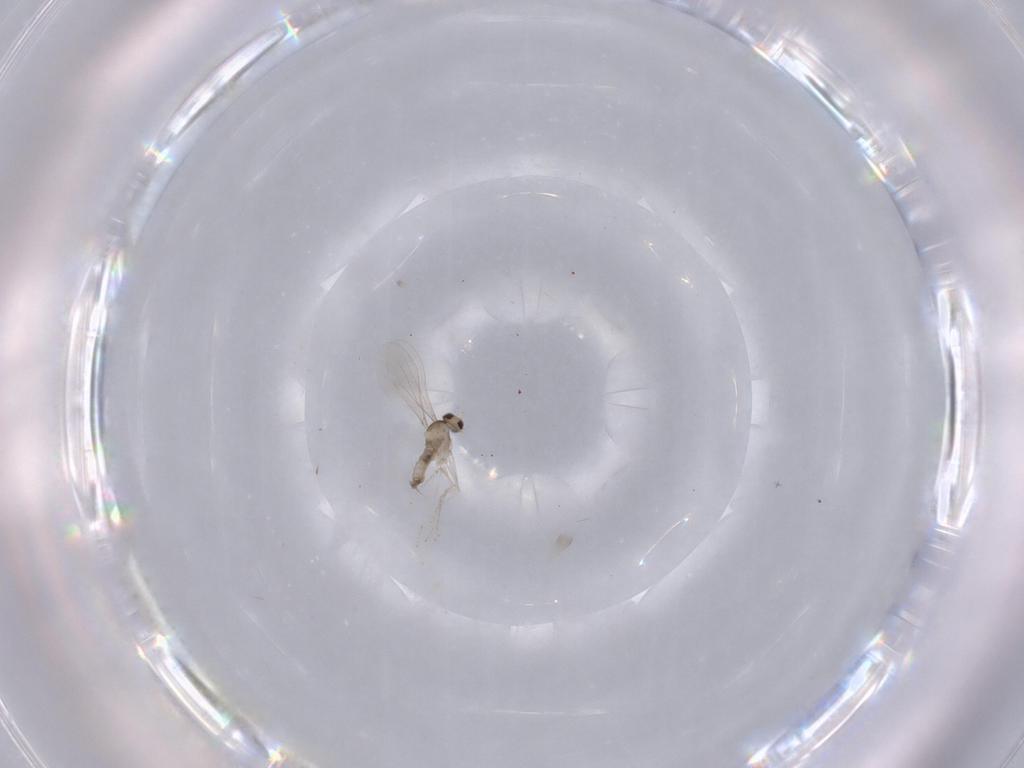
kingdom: Animalia
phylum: Arthropoda
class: Insecta
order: Diptera
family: Cecidomyiidae
